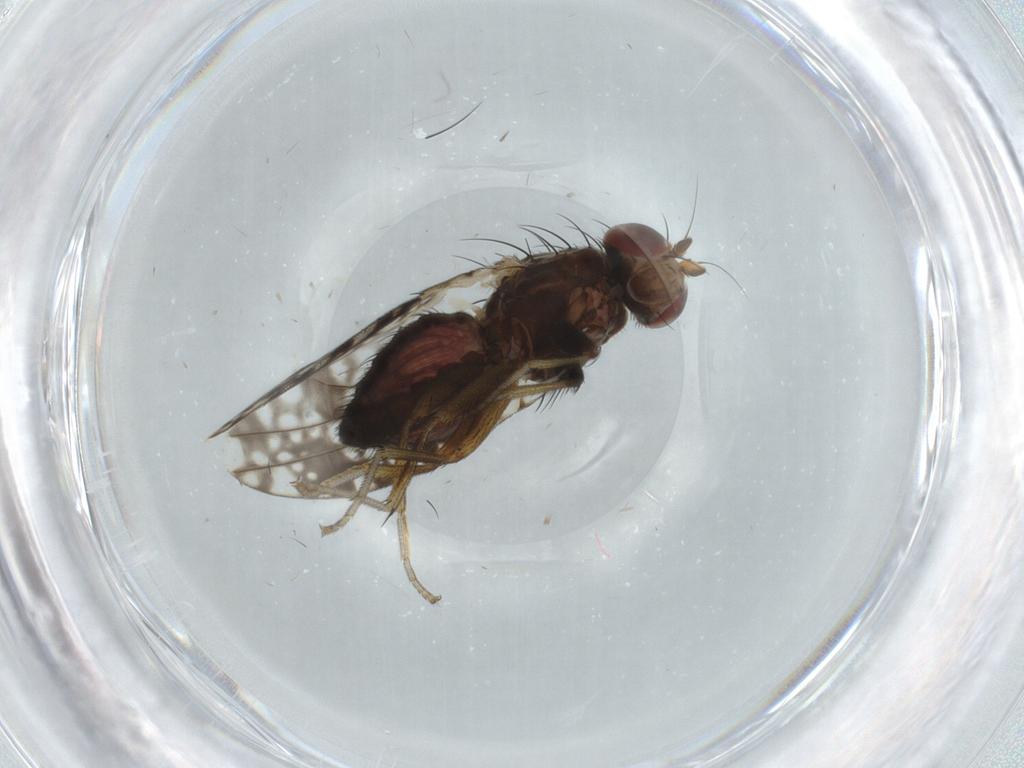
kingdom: Animalia
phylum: Arthropoda
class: Insecta
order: Diptera
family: Tephritidae
